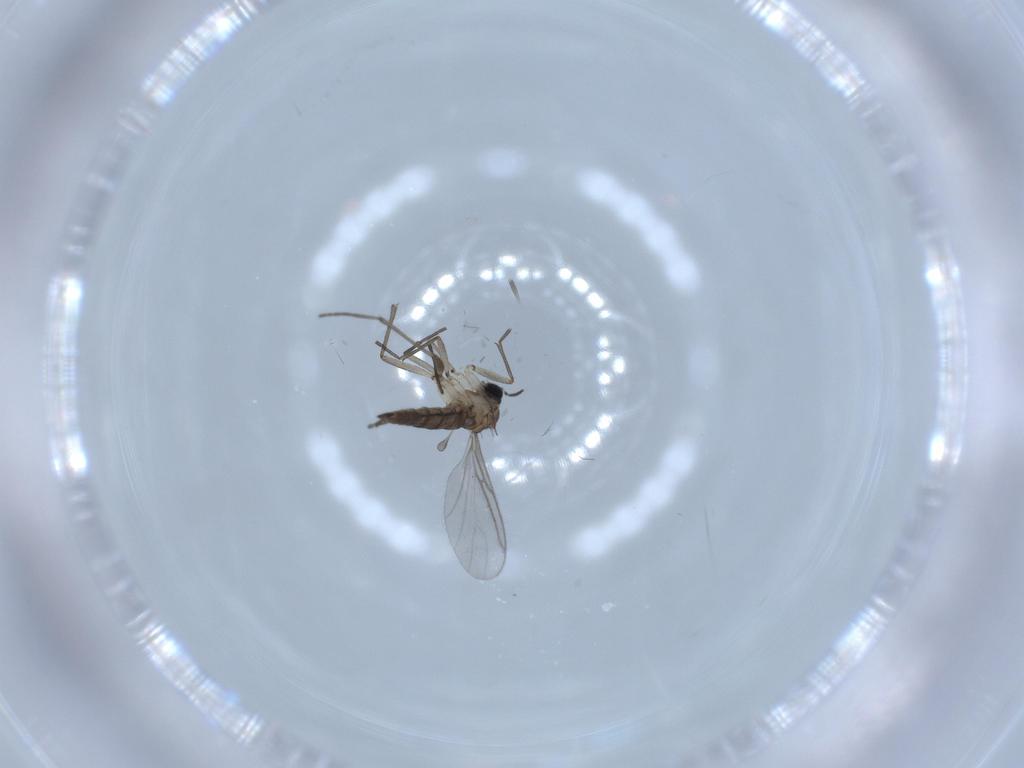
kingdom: Animalia
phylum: Arthropoda
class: Insecta
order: Diptera
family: Sciaridae
